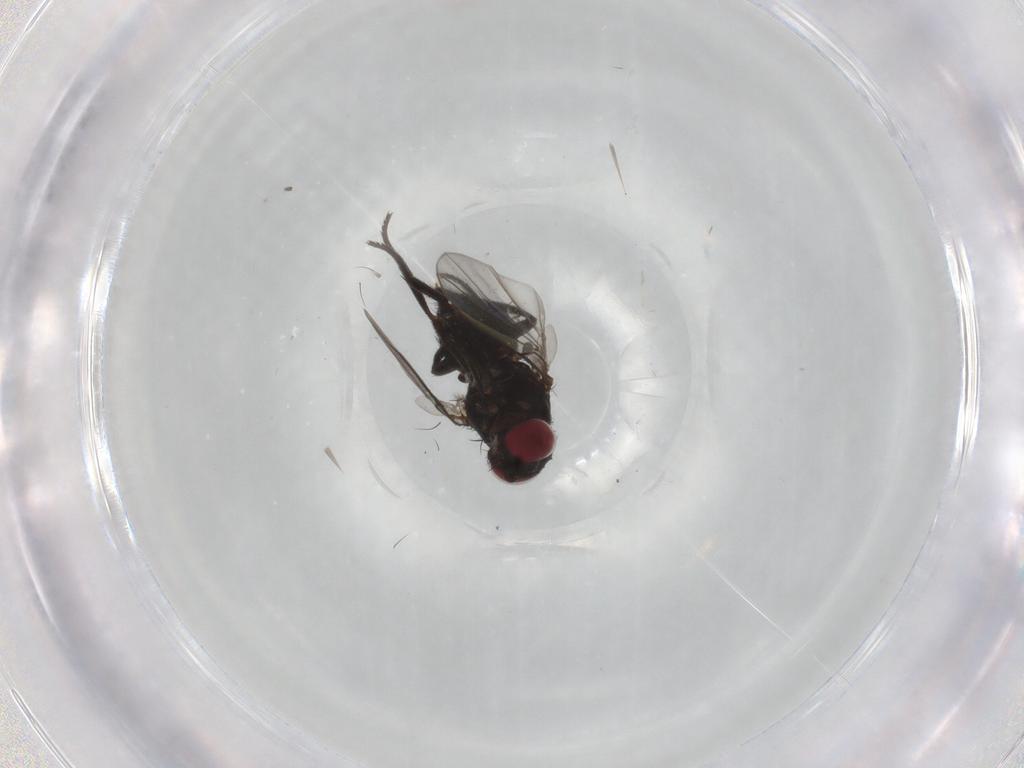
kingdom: Animalia
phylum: Arthropoda
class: Insecta
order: Diptera
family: Agromyzidae
